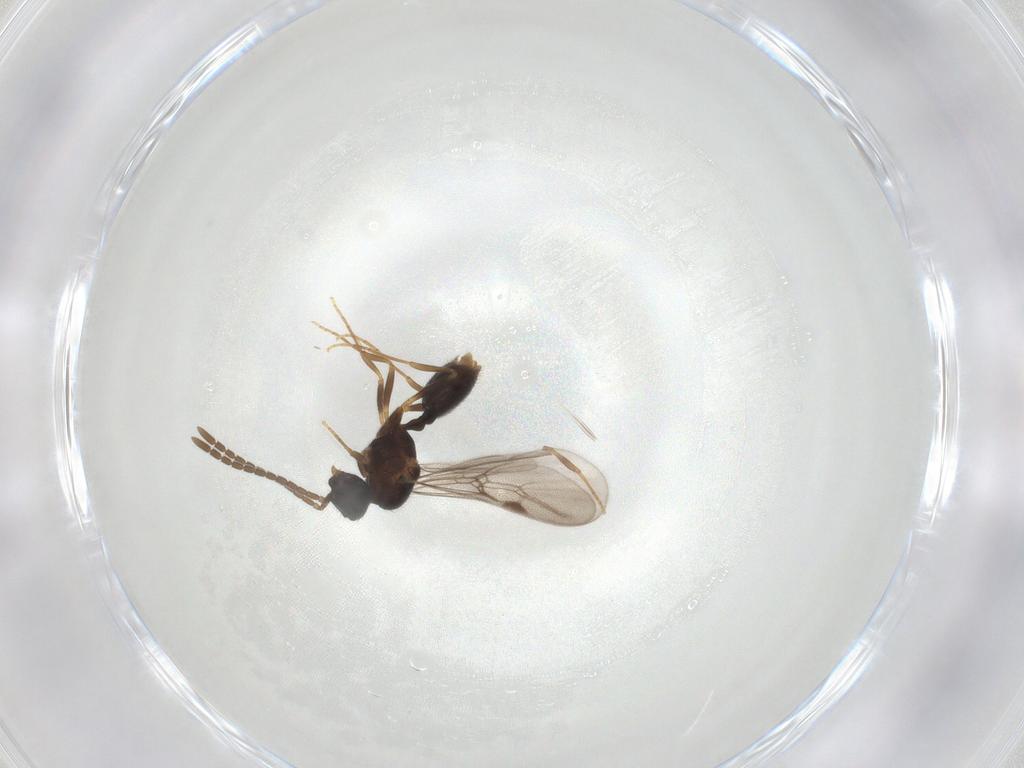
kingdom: Animalia
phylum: Arthropoda
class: Insecta
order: Hymenoptera
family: Formicidae
